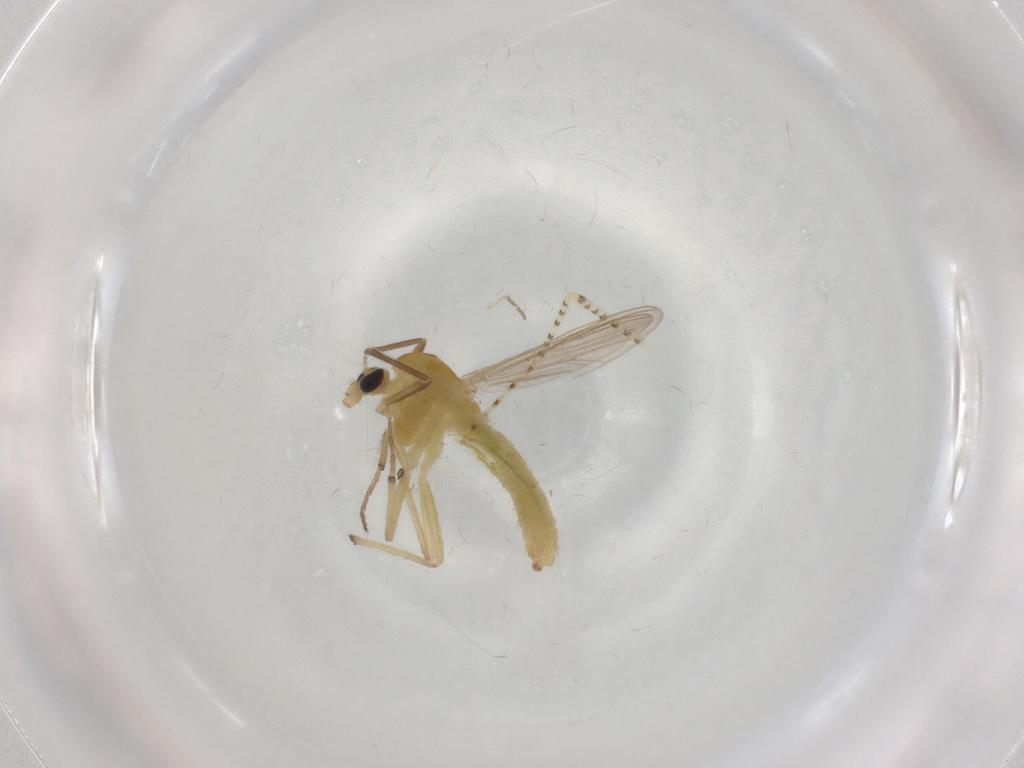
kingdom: Animalia
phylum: Arthropoda
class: Insecta
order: Diptera
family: Chironomidae
